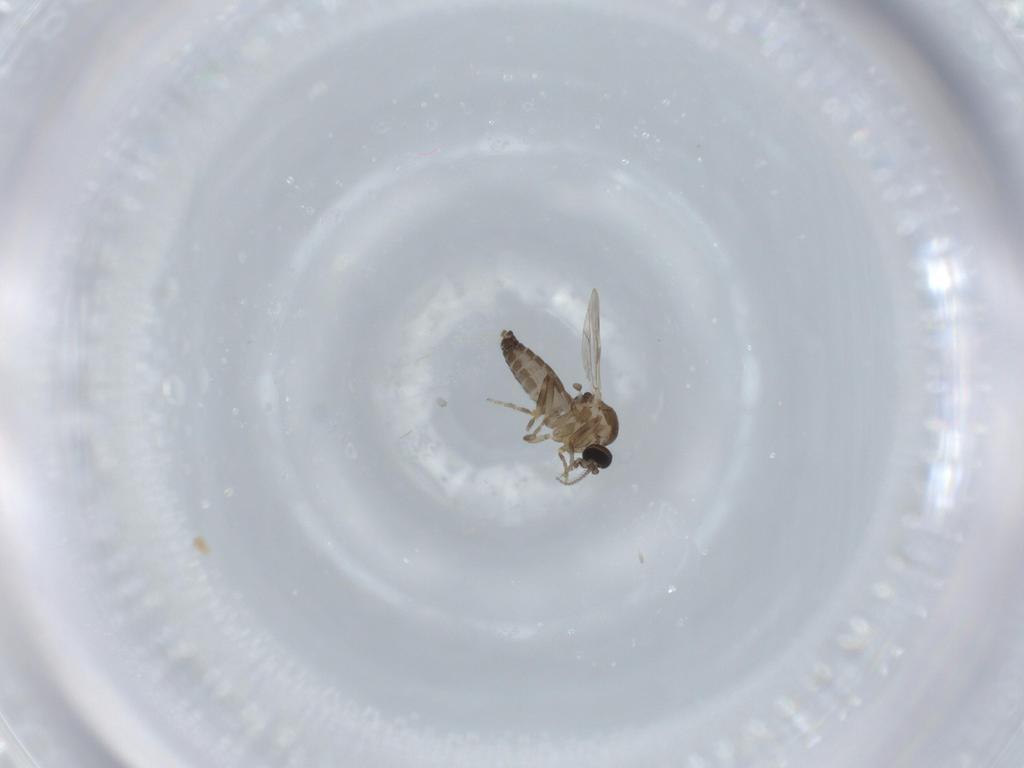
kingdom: Animalia
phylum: Arthropoda
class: Insecta
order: Diptera
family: Ceratopogonidae
